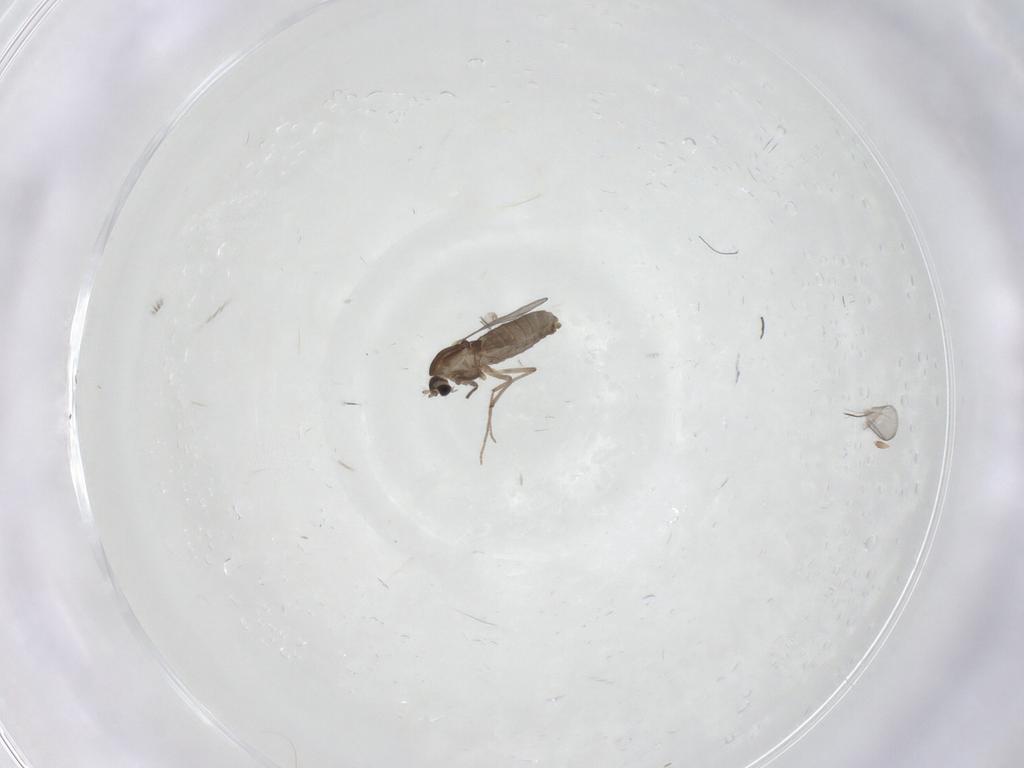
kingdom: Animalia
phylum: Arthropoda
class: Insecta
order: Diptera
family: Chironomidae
